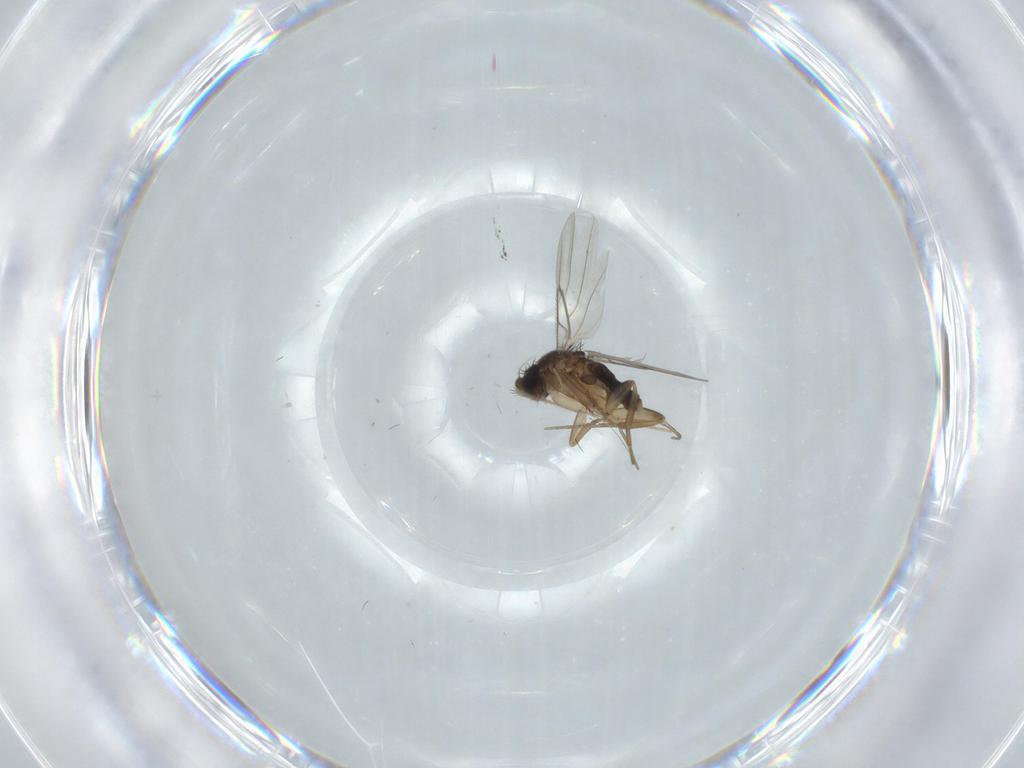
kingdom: Animalia
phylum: Arthropoda
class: Insecta
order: Diptera
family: Phoridae
